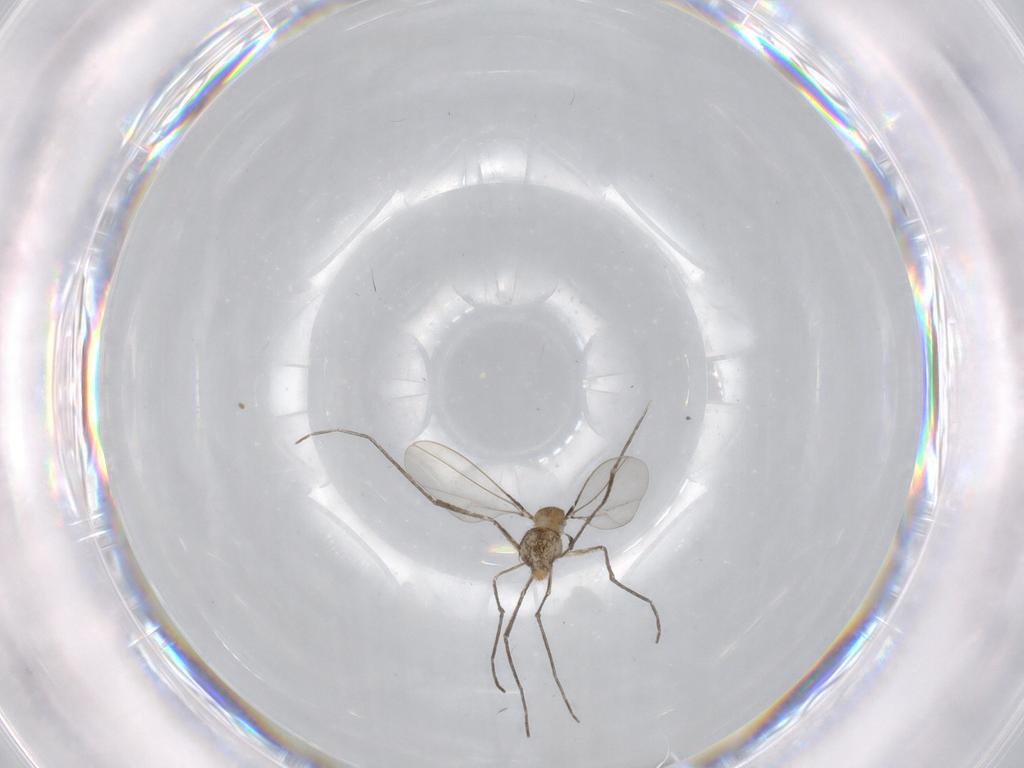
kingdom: Animalia
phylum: Arthropoda
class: Insecta
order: Diptera
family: Cecidomyiidae
